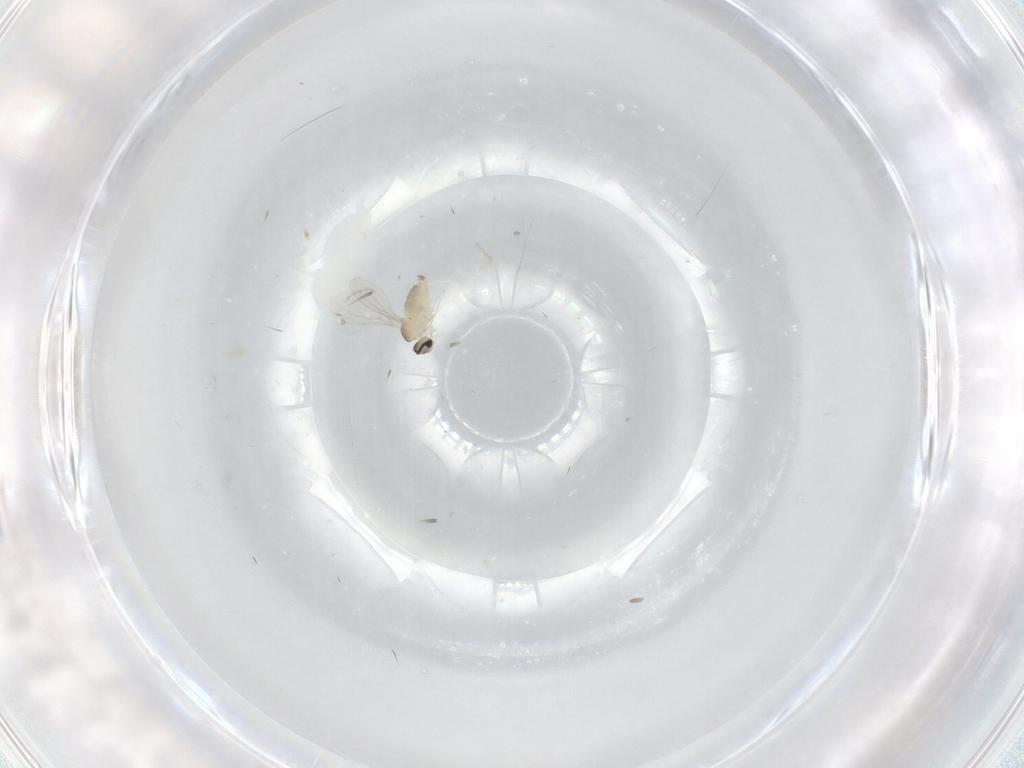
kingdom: Animalia
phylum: Arthropoda
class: Insecta
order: Diptera
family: Cecidomyiidae
